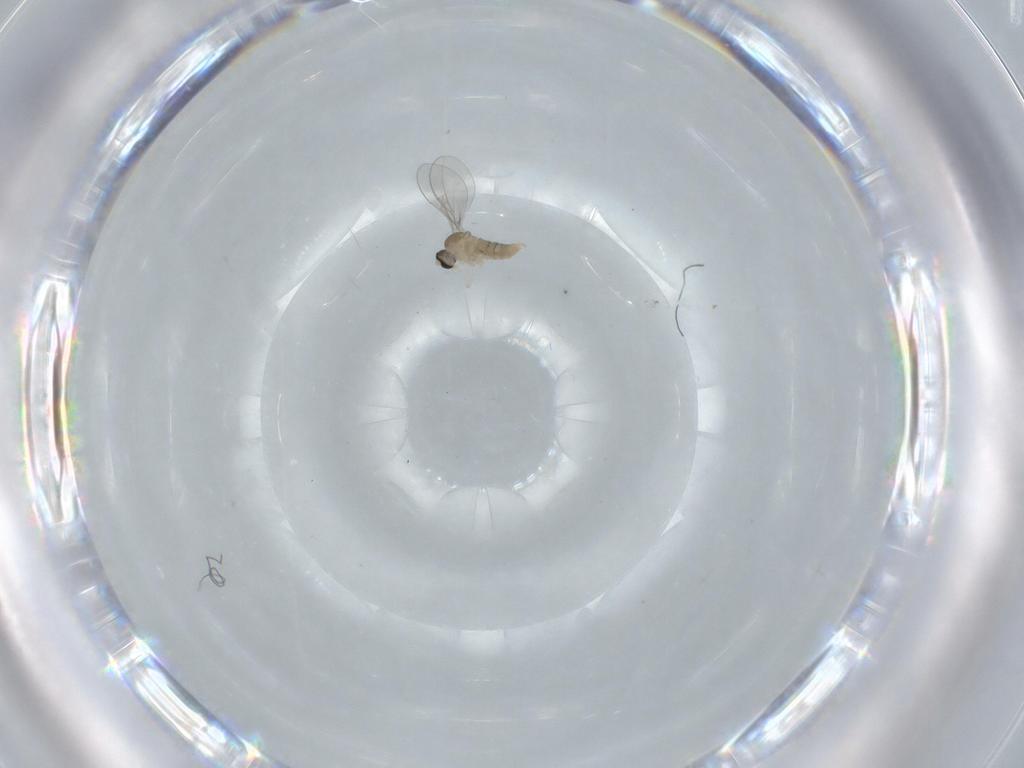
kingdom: Animalia
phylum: Arthropoda
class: Insecta
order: Diptera
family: Cecidomyiidae
